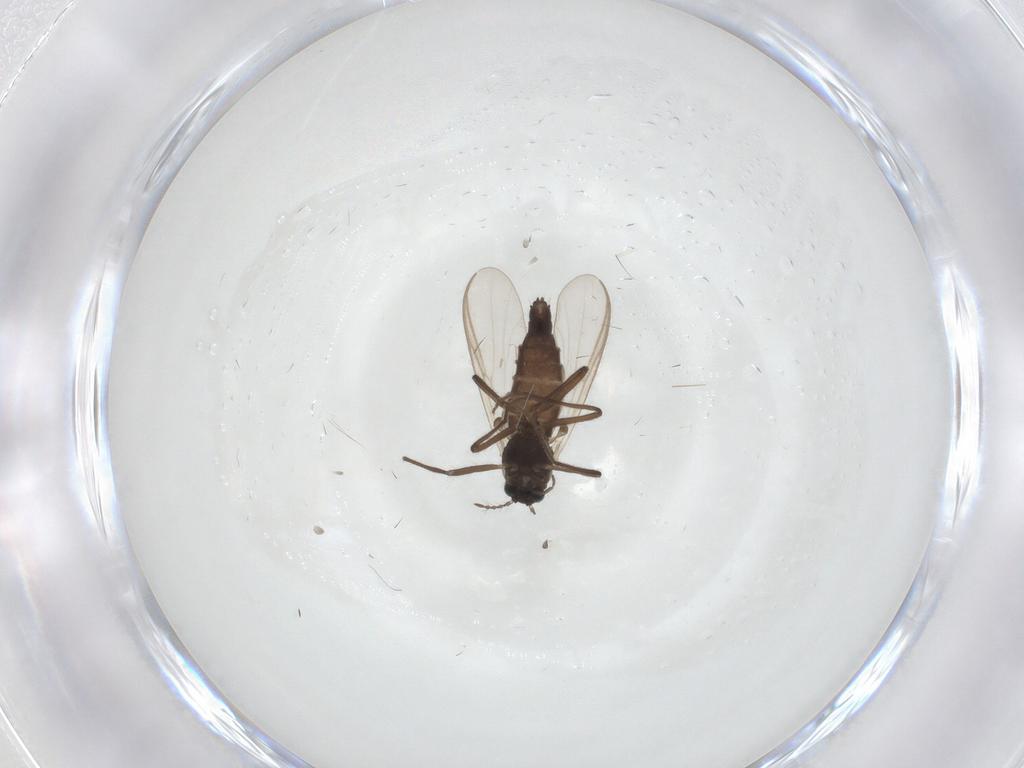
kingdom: Animalia
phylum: Arthropoda
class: Insecta
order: Diptera
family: Chironomidae
